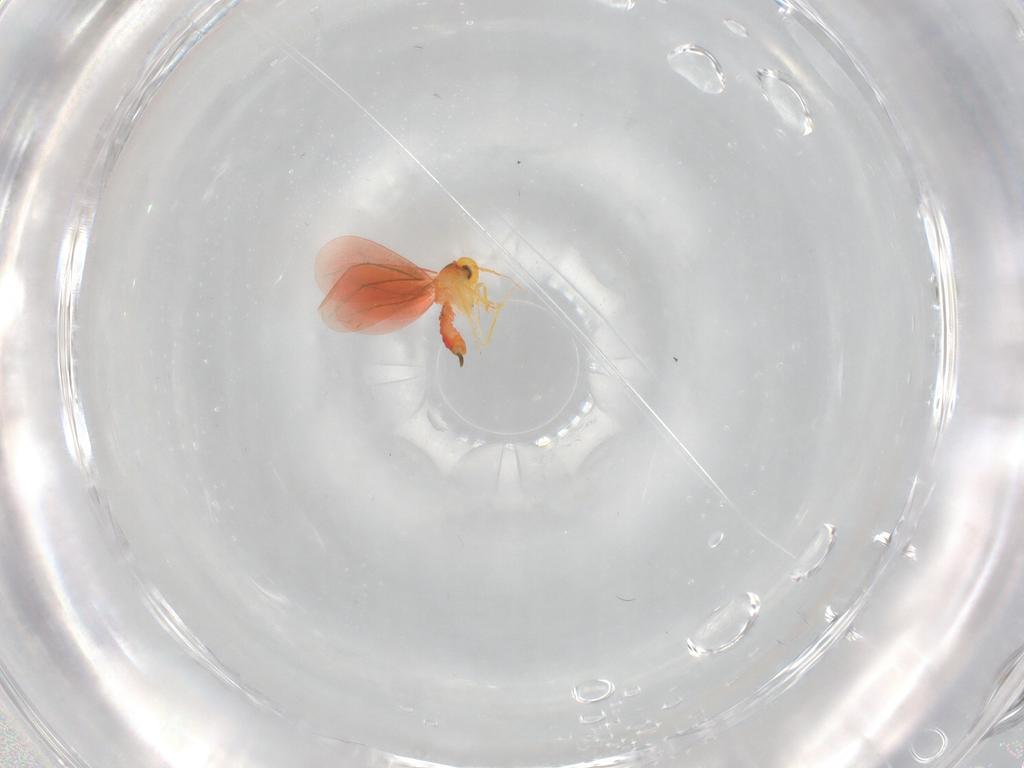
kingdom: Animalia
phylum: Arthropoda
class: Insecta
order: Hemiptera
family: Aleyrodidae
